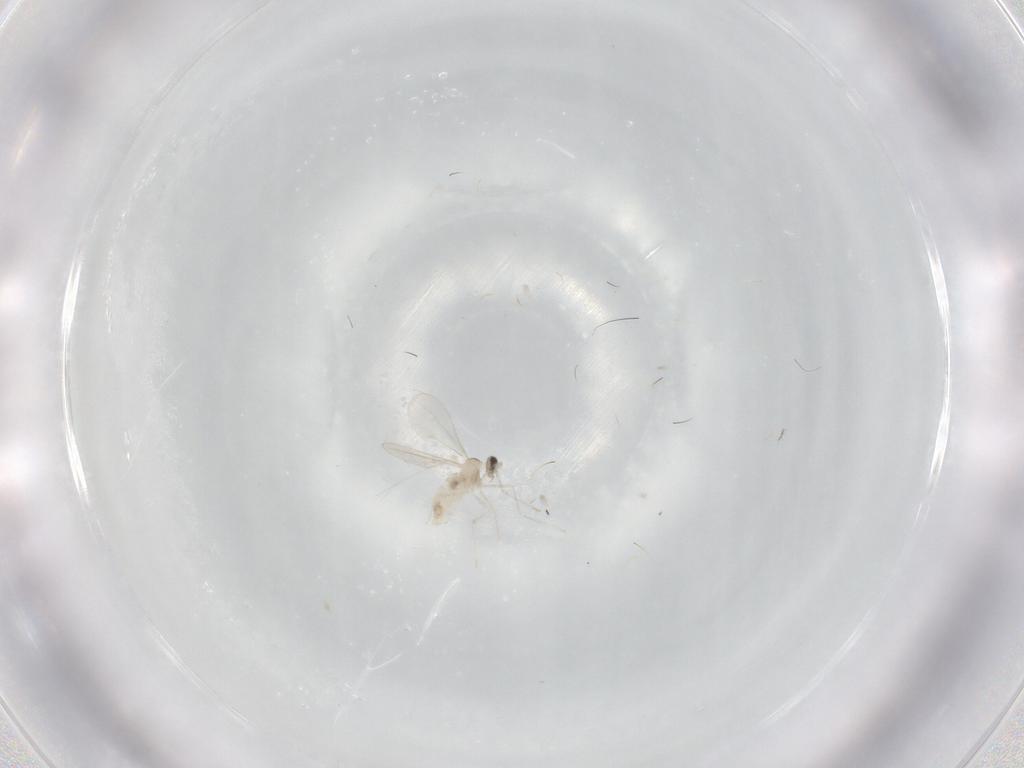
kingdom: Animalia
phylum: Arthropoda
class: Insecta
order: Diptera
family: Cecidomyiidae
